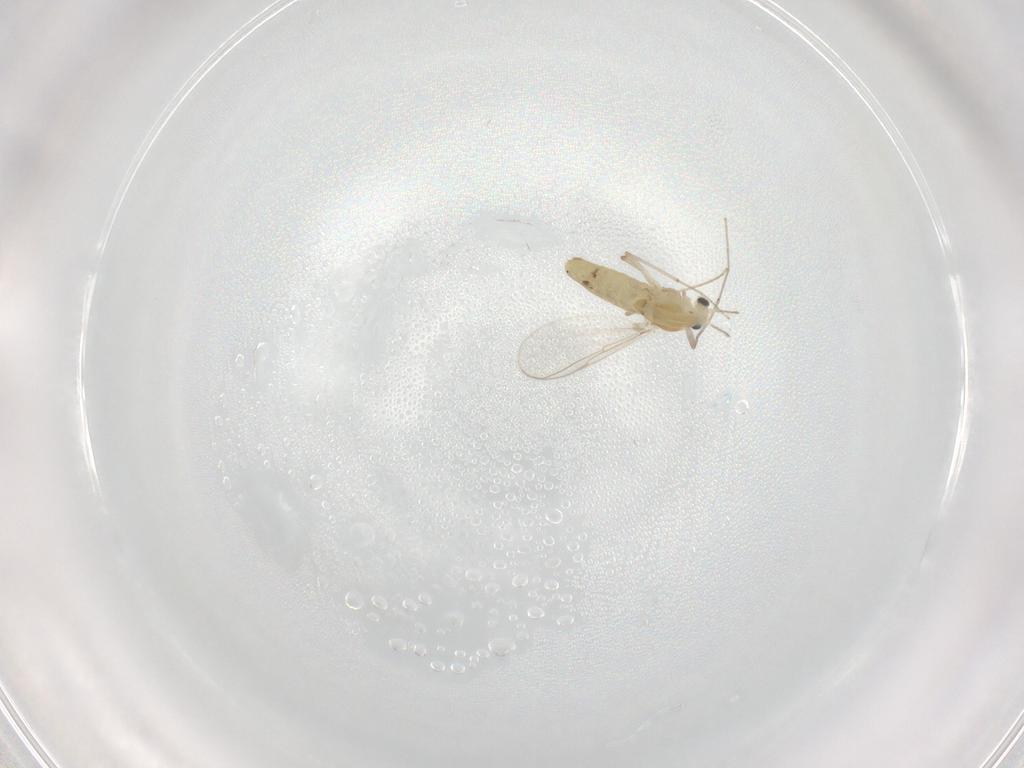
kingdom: Animalia
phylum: Arthropoda
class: Insecta
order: Diptera
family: Chironomidae
